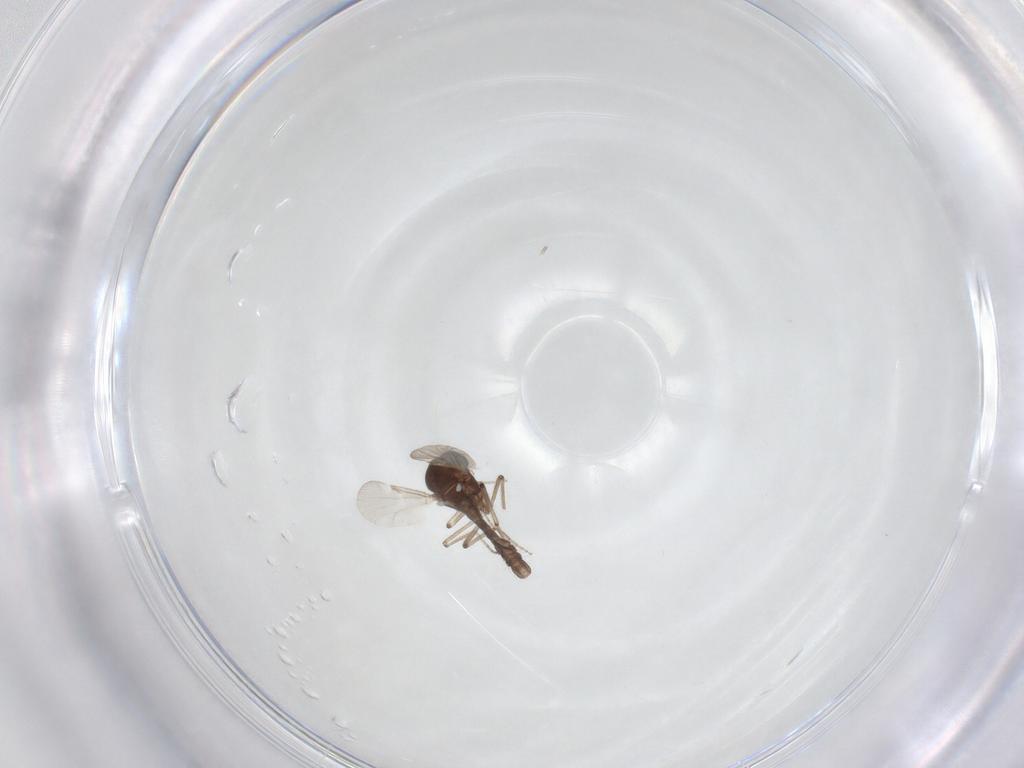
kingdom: Animalia
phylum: Arthropoda
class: Insecta
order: Diptera
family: Ceratopogonidae
